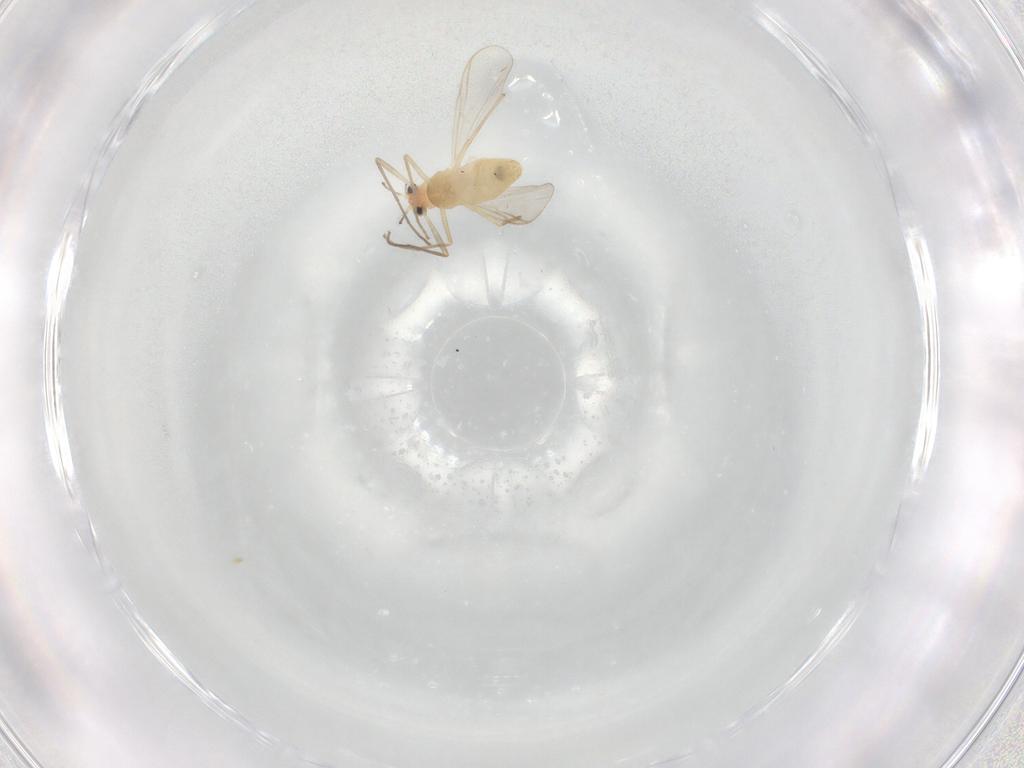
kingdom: Animalia
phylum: Arthropoda
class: Insecta
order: Diptera
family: Chironomidae
